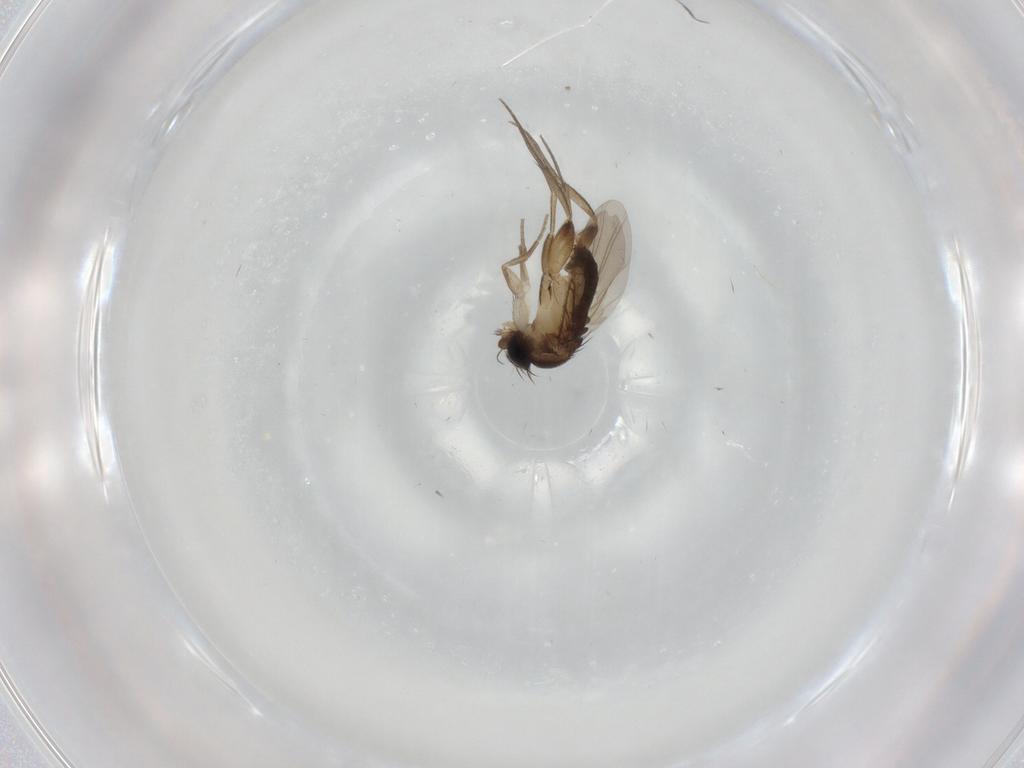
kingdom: Animalia
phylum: Arthropoda
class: Insecta
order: Diptera
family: Phoridae
